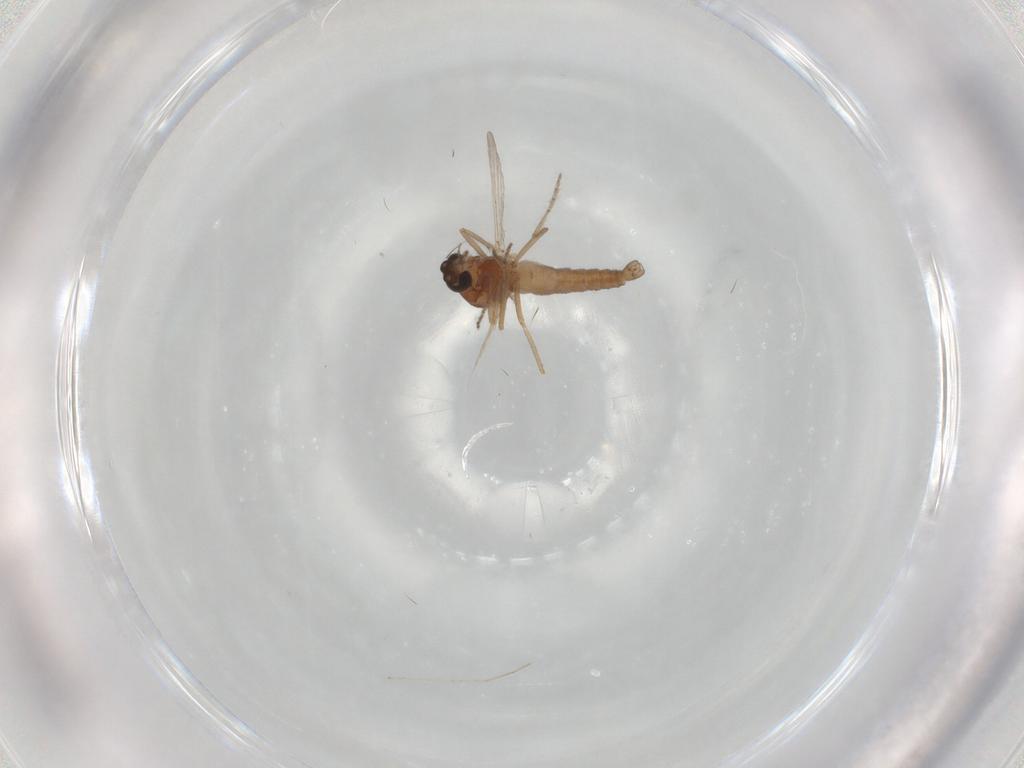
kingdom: Animalia
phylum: Arthropoda
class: Insecta
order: Diptera
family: Ceratopogonidae
